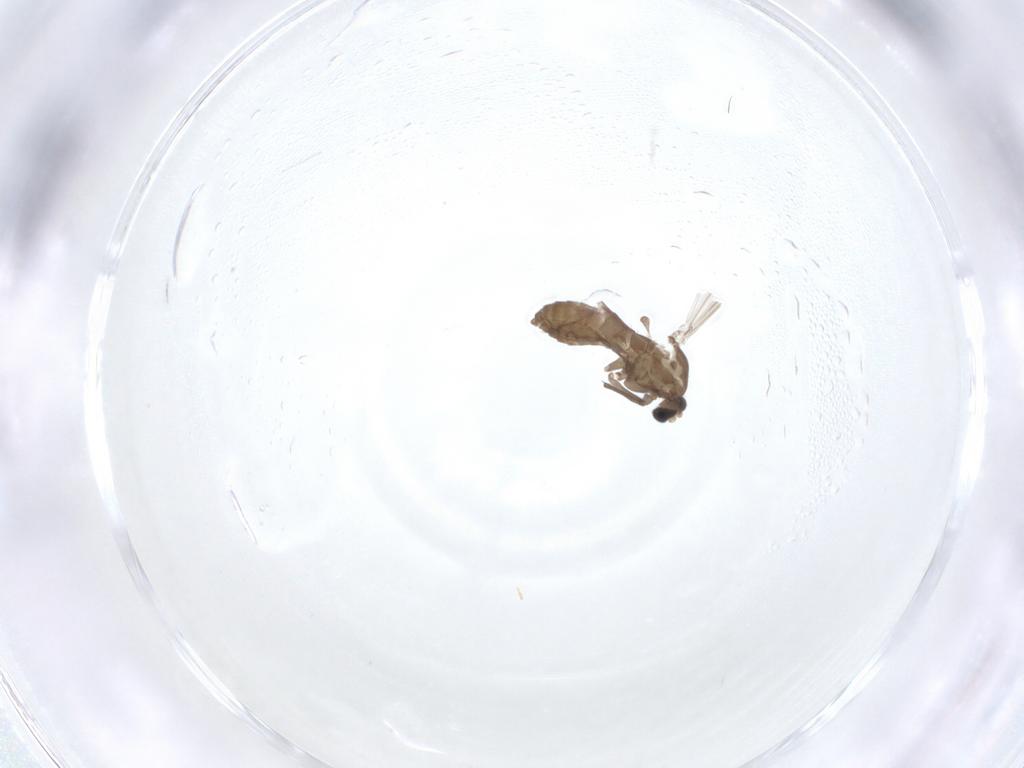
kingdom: Animalia
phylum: Arthropoda
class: Insecta
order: Diptera
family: Chironomidae
